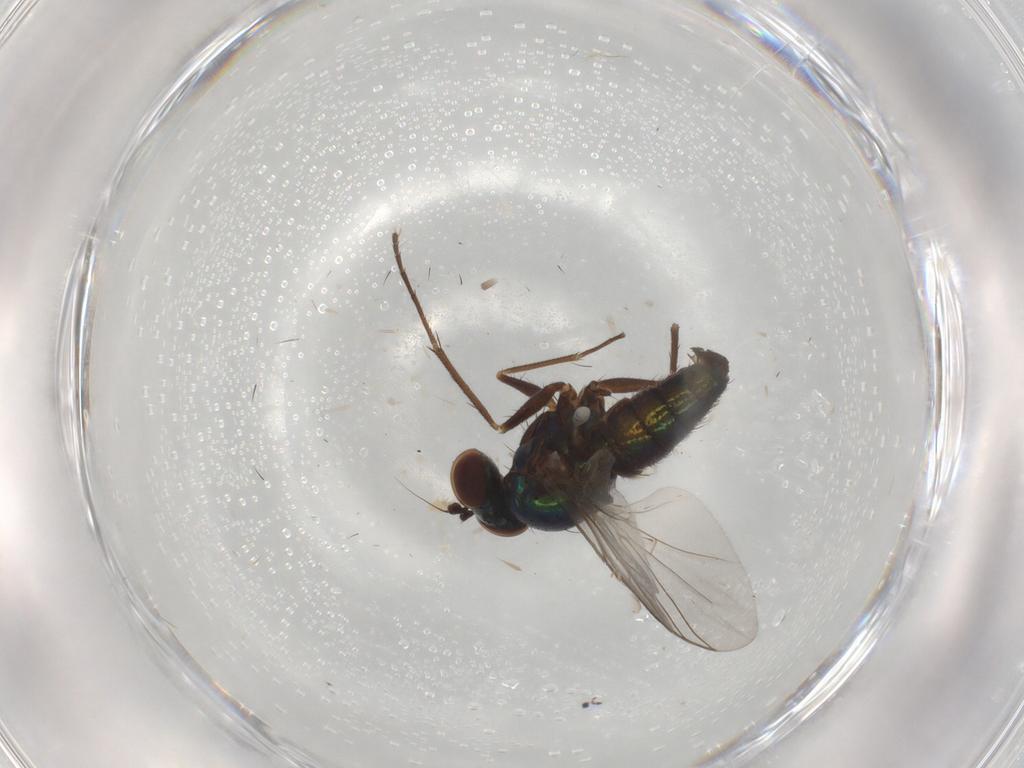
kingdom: Animalia
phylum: Arthropoda
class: Insecta
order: Diptera
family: Dolichopodidae
